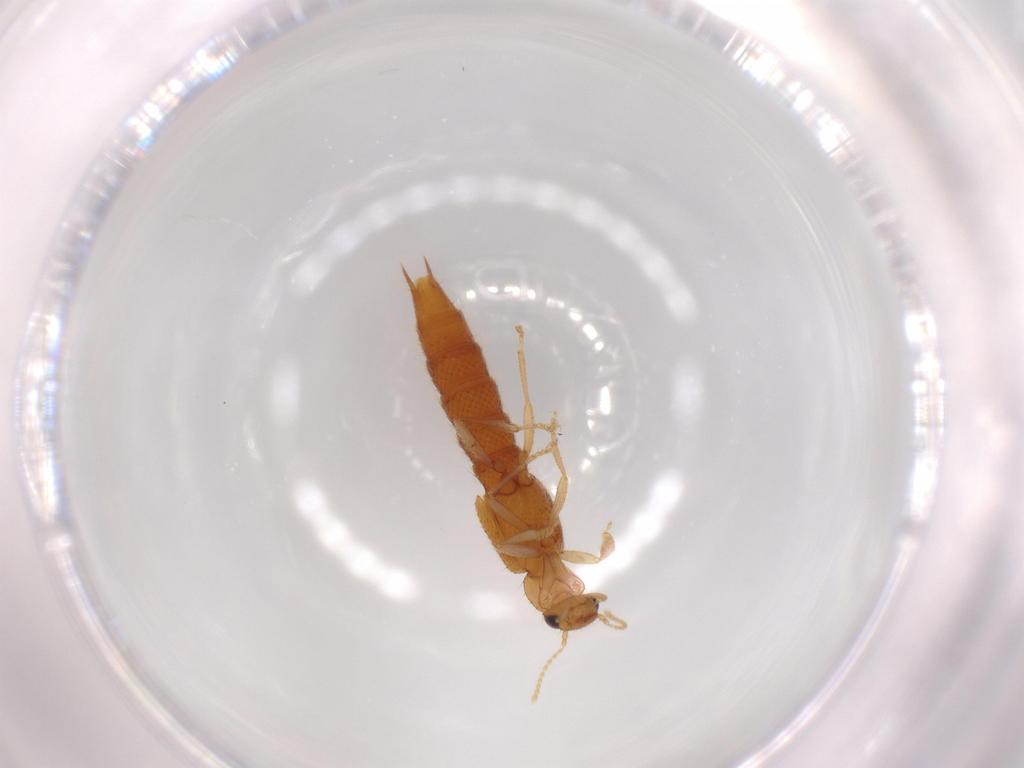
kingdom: Animalia
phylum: Arthropoda
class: Insecta
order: Coleoptera
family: Staphylinidae
